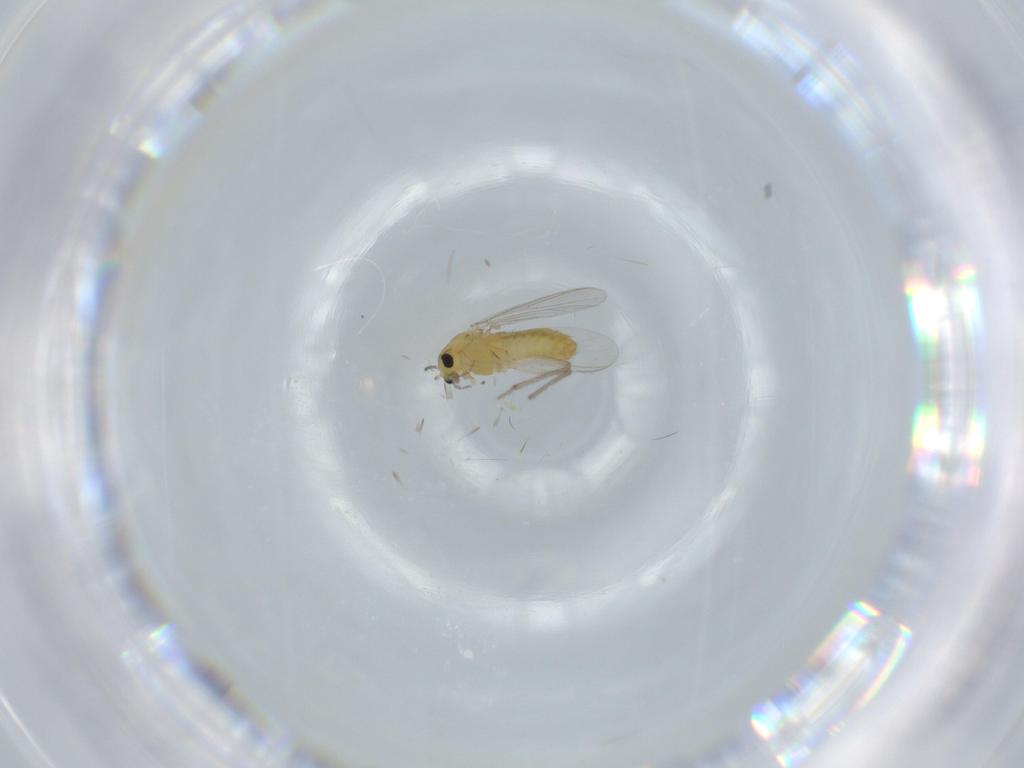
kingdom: Animalia
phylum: Arthropoda
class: Insecta
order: Diptera
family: Chironomidae
